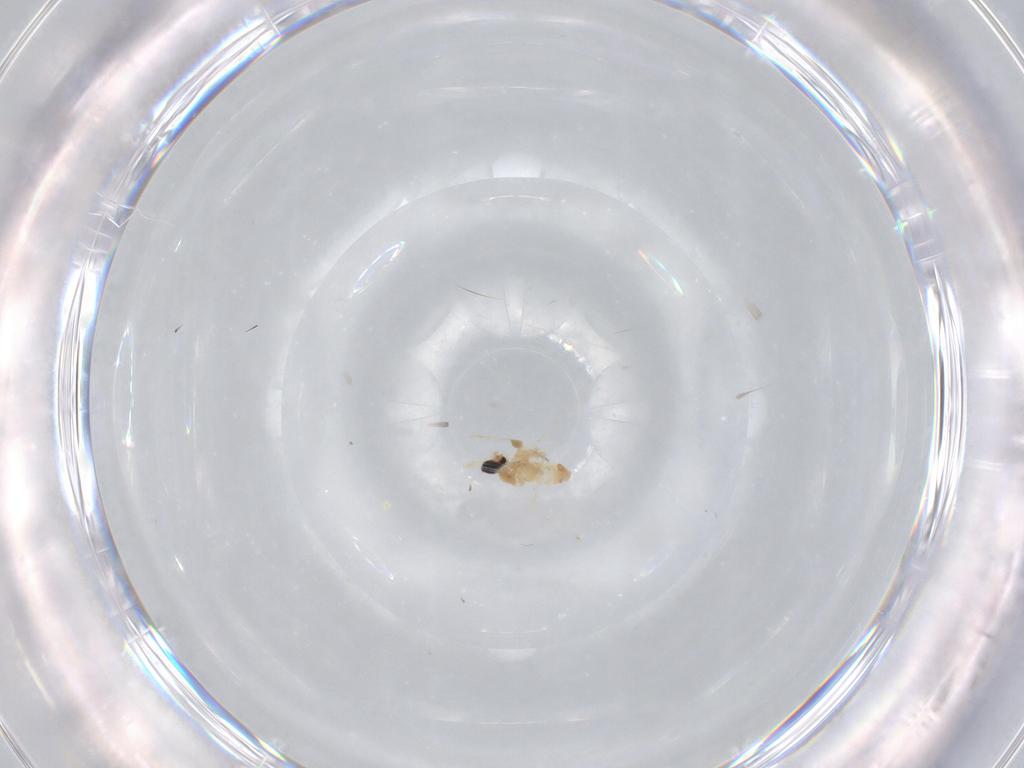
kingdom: Animalia
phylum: Arthropoda
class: Insecta
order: Diptera
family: Cecidomyiidae
